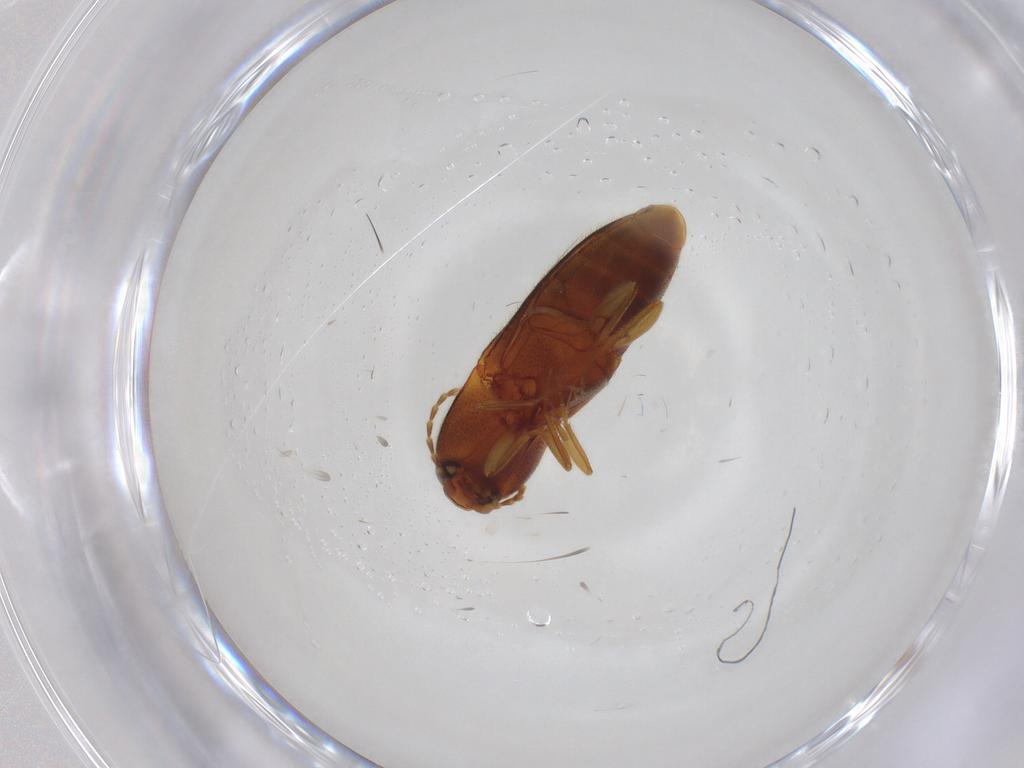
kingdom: Animalia
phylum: Arthropoda
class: Insecta
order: Coleoptera
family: Elateridae
